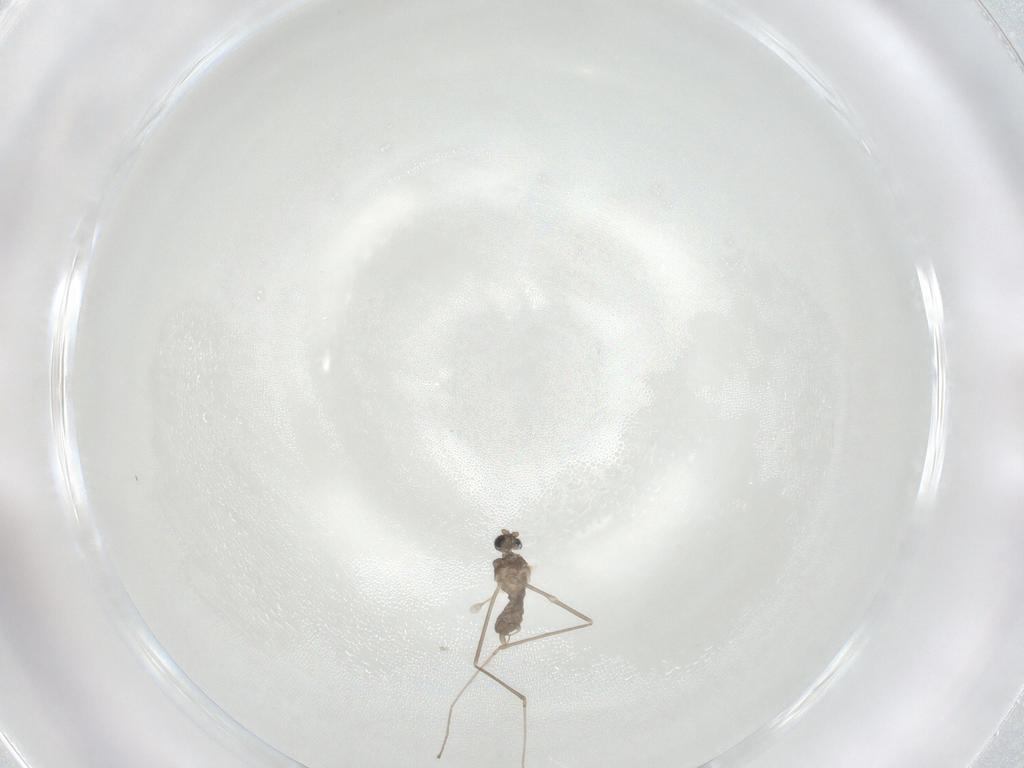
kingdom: Animalia
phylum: Arthropoda
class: Insecta
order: Diptera
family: Cecidomyiidae
